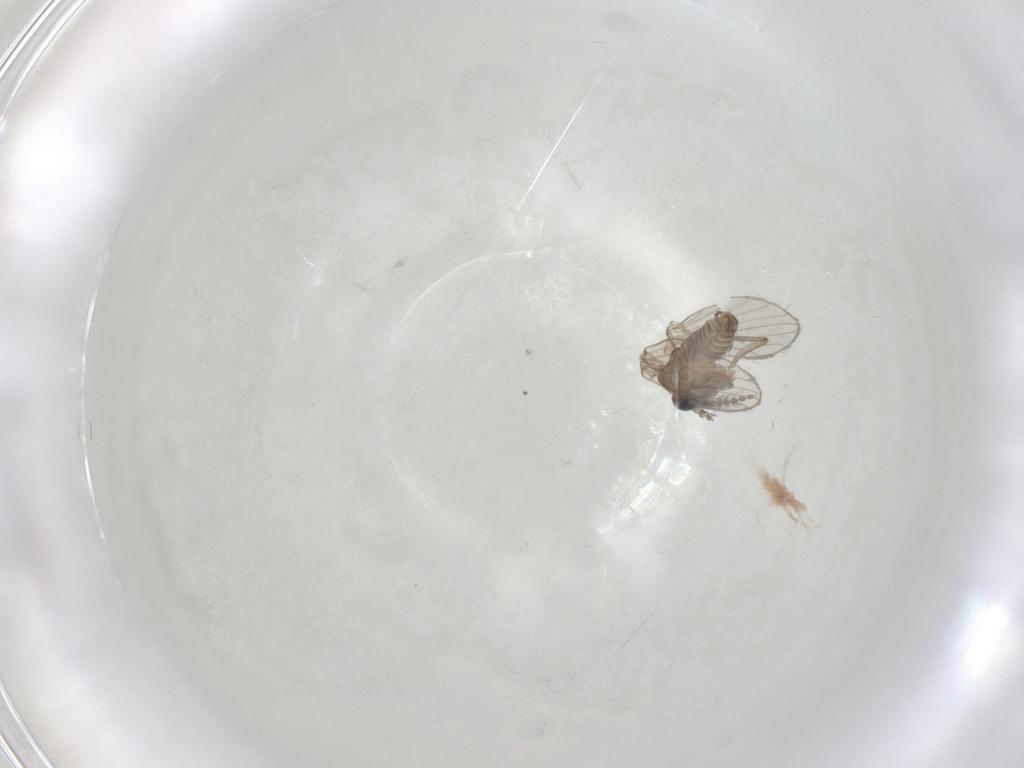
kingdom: Animalia
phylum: Arthropoda
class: Insecta
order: Diptera
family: Psychodidae
